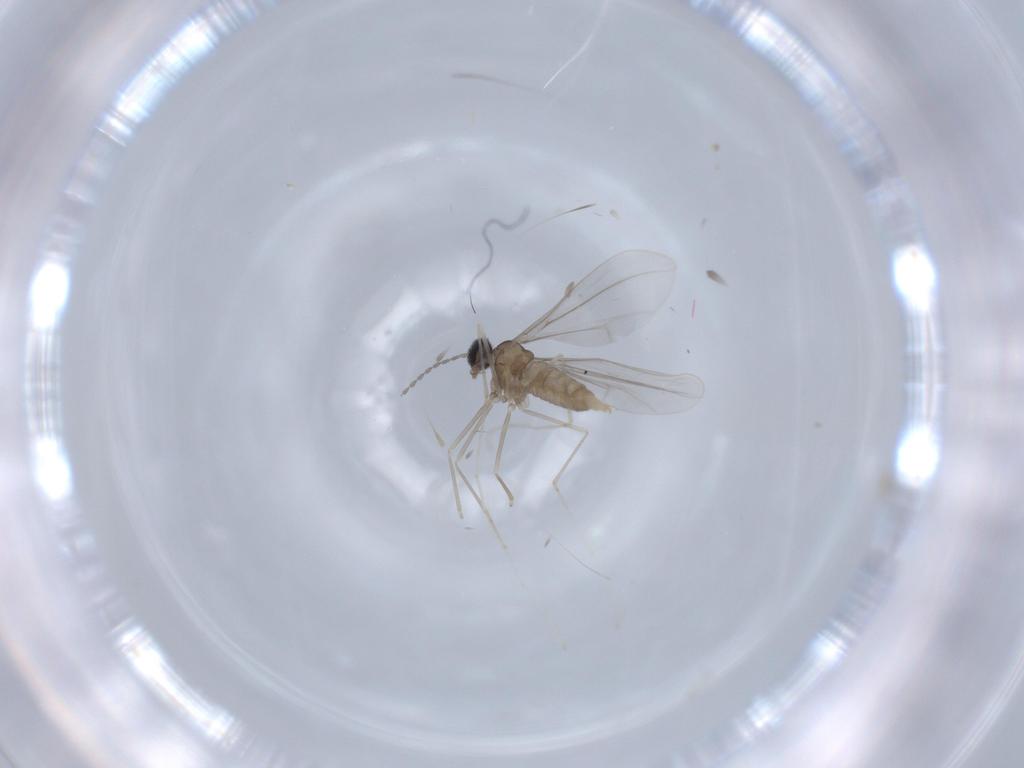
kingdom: Animalia
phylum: Arthropoda
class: Insecta
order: Diptera
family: Cecidomyiidae
